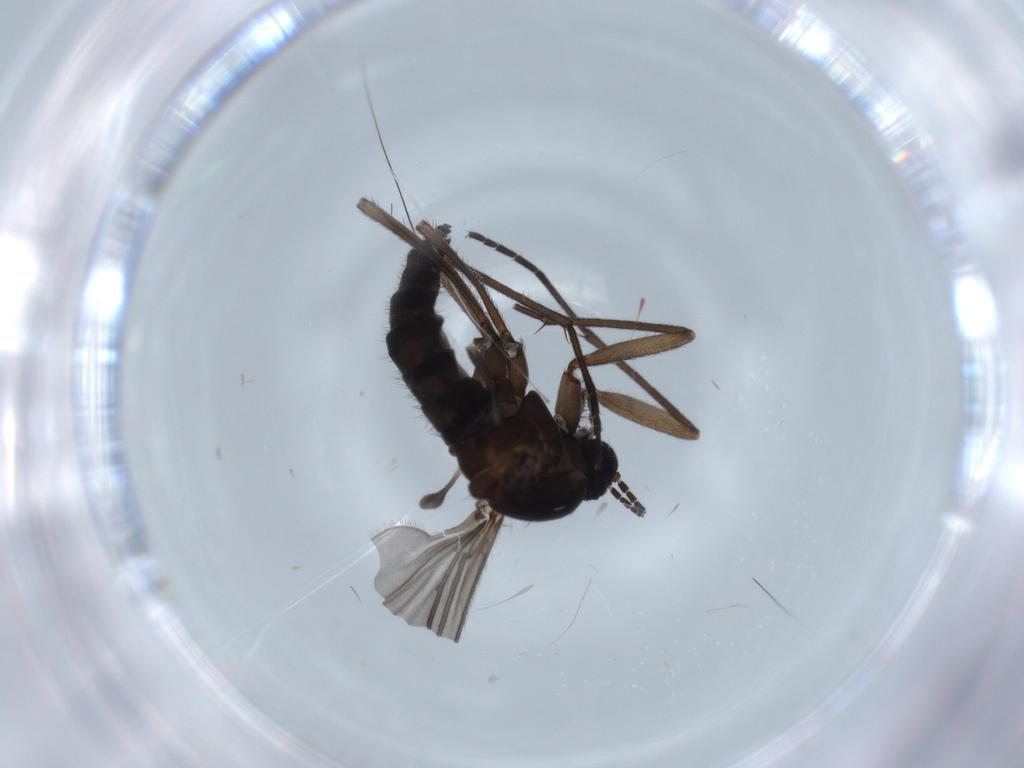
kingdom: Animalia
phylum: Arthropoda
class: Insecta
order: Diptera
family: Sciaridae
